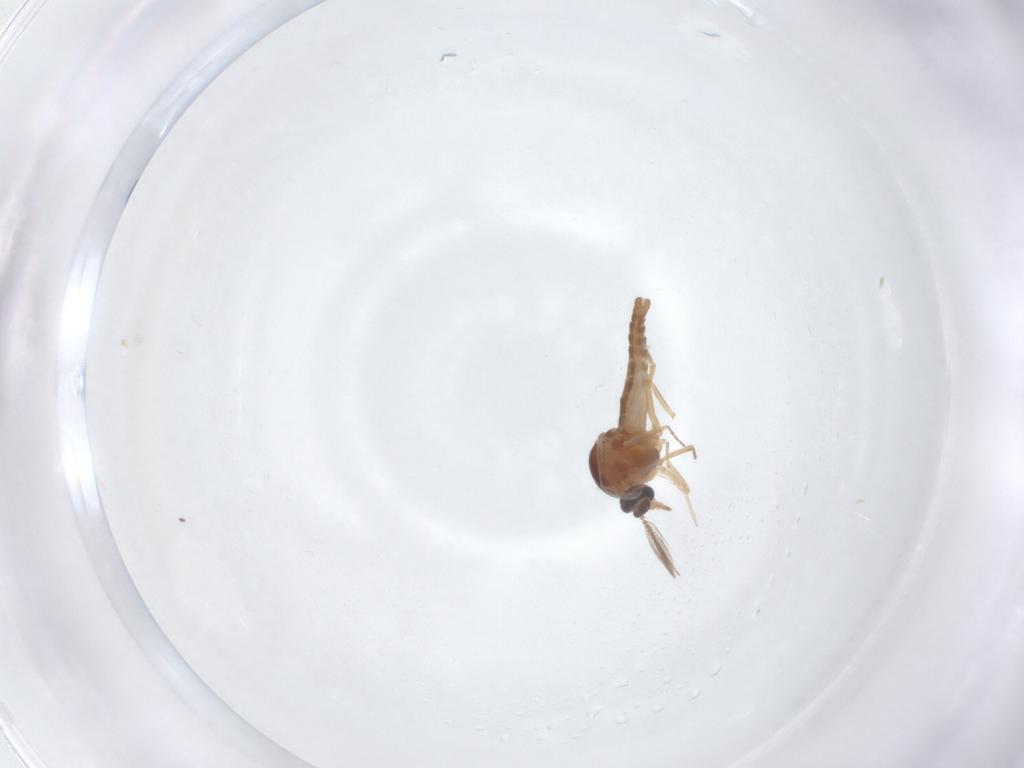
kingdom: Animalia
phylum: Arthropoda
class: Insecta
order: Diptera
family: Ceratopogonidae
